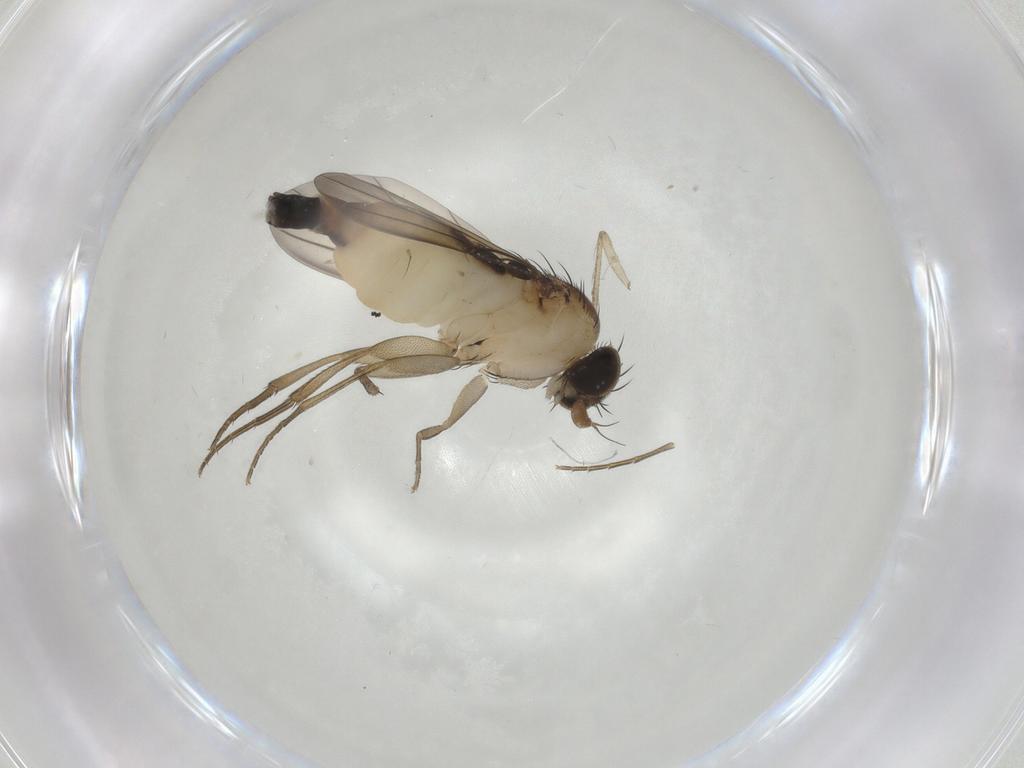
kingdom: Animalia
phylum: Arthropoda
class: Insecta
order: Diptera
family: Phoridae
